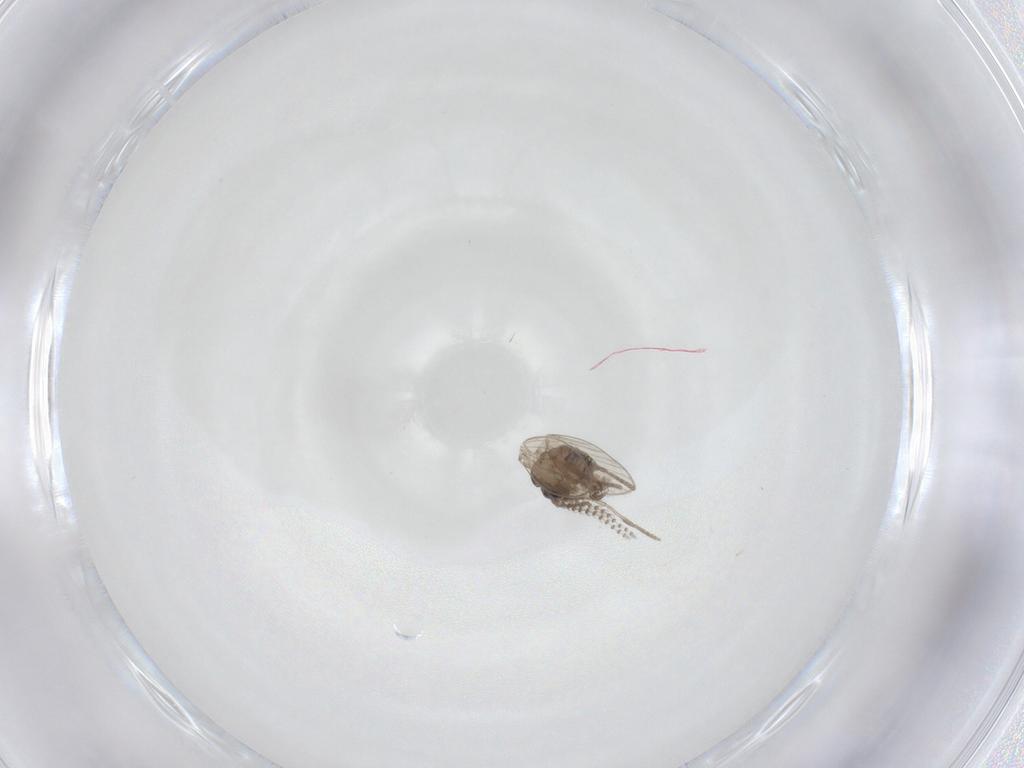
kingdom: Animalia
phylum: Arthropoda
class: Insecta
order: Diptera
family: Psychodidae
